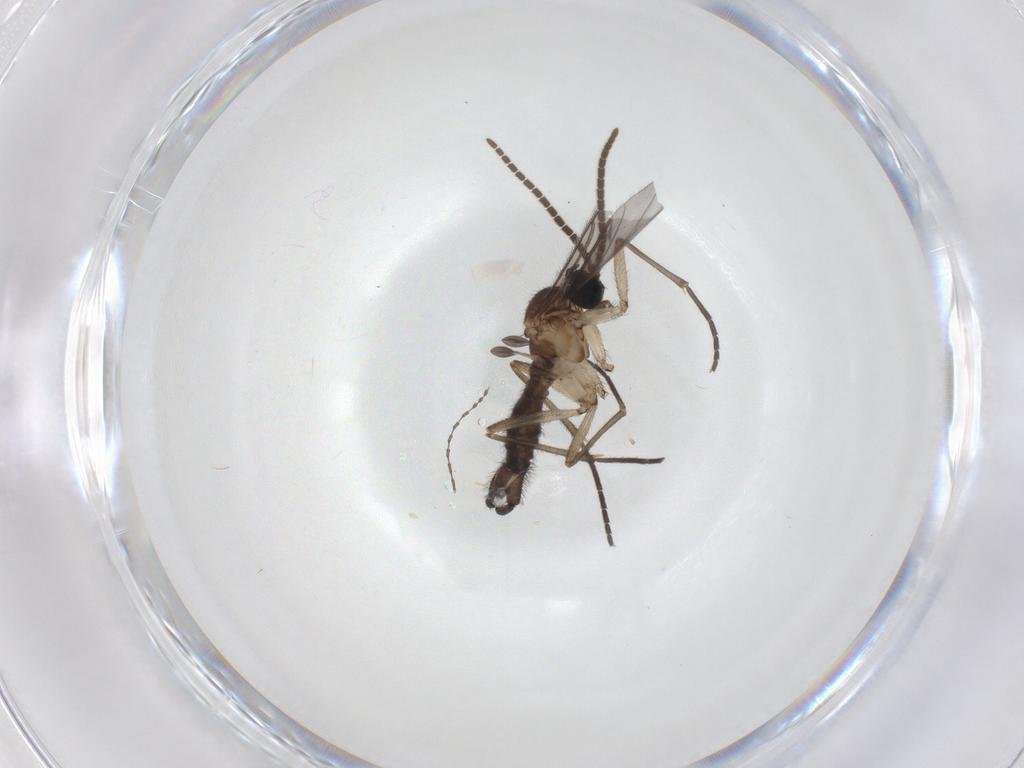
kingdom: Animalia
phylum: Arthropoda
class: Insecta
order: Diptera
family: Sciaridae
